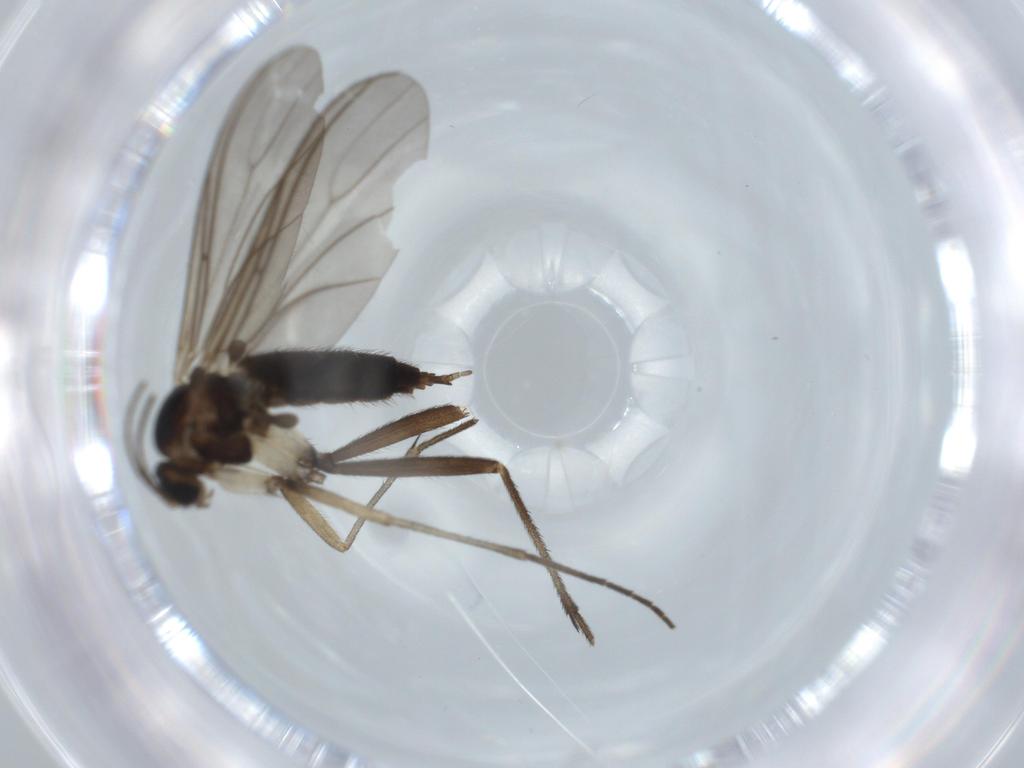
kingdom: Animalia
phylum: Arthropoda
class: Insecta
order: Diptera
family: Sciaridae
